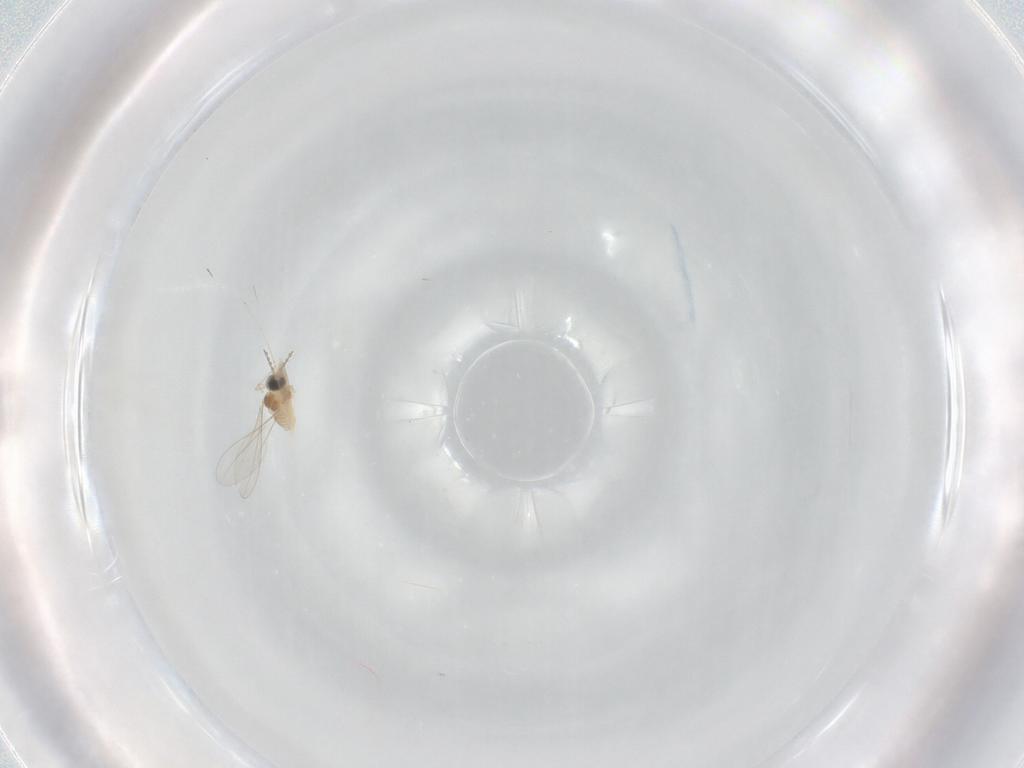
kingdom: Animalia
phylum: Arthropoda
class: Insecta
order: Diptera
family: Cecidomyiidae
